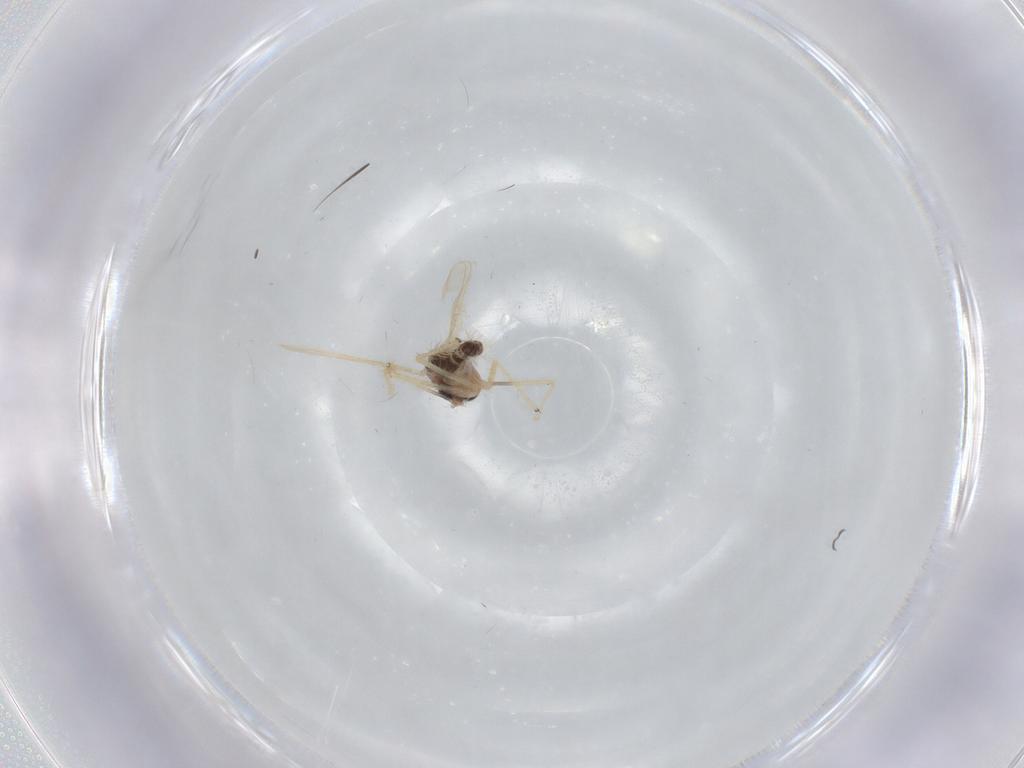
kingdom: Animalia
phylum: Arthropoda
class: Insecta
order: Diptera
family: Chironomidae
